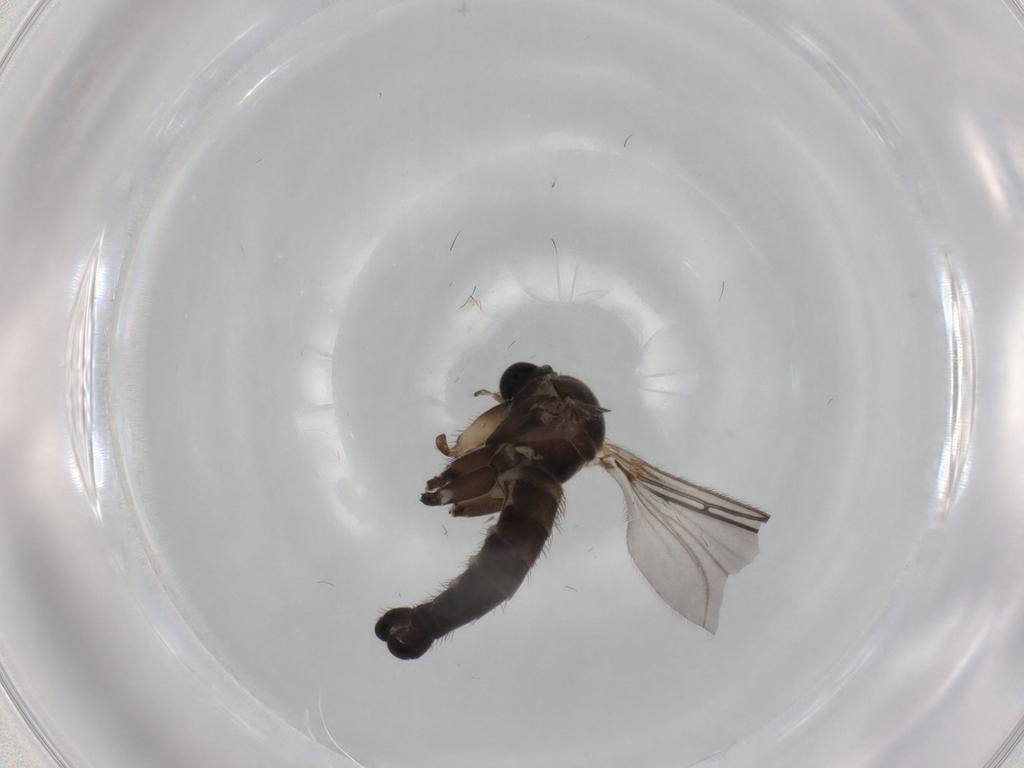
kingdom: Animalia
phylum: Arthropoda
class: Insecta
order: Diptera
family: Sciaridae
